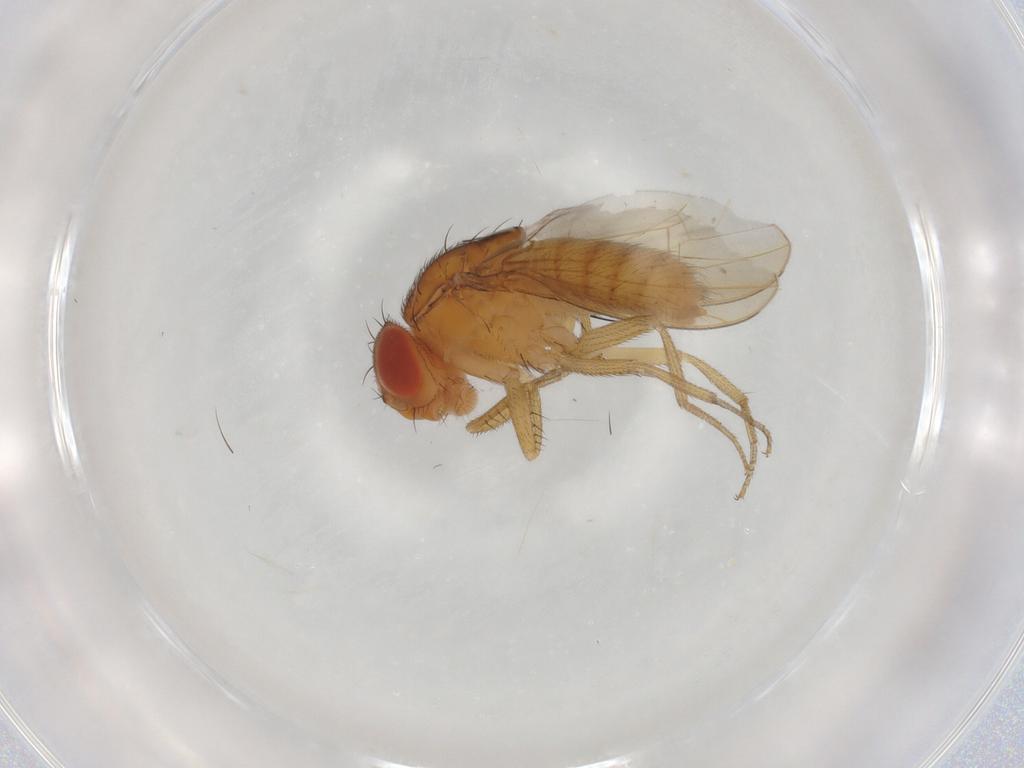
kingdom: Animalia
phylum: Arthropoda
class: Insecta
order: Diptera
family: Drosophilidae
